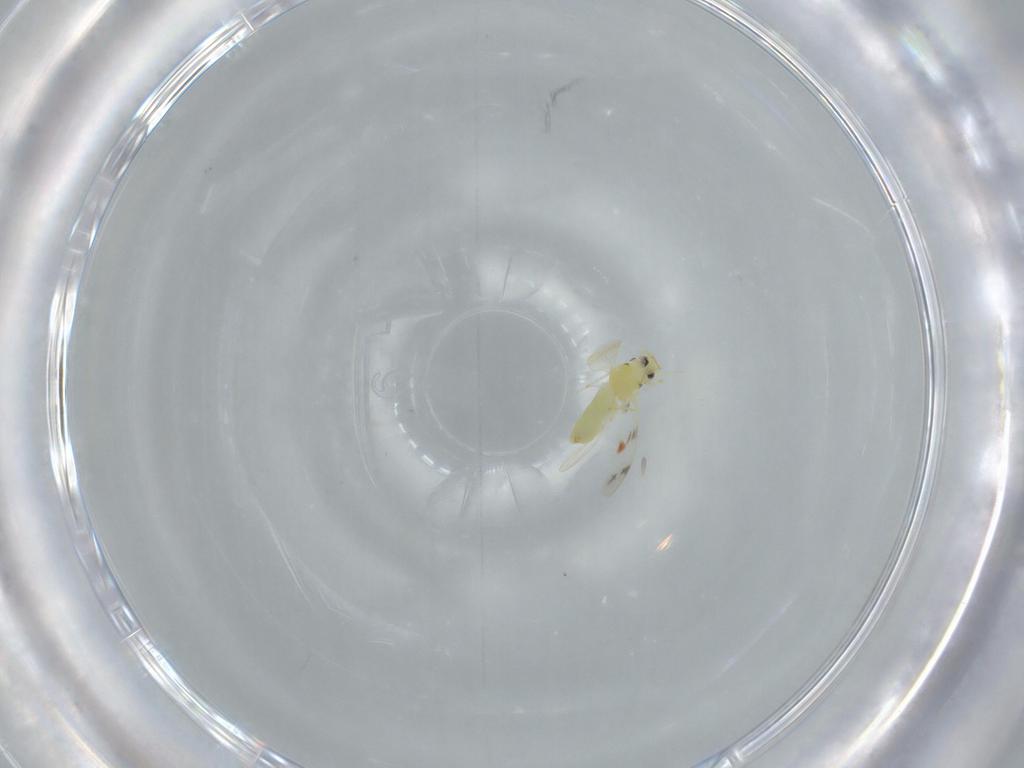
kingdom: Animalia
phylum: Arthropoda
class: Insecta
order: Hemiptera
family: Aleyrodidae
